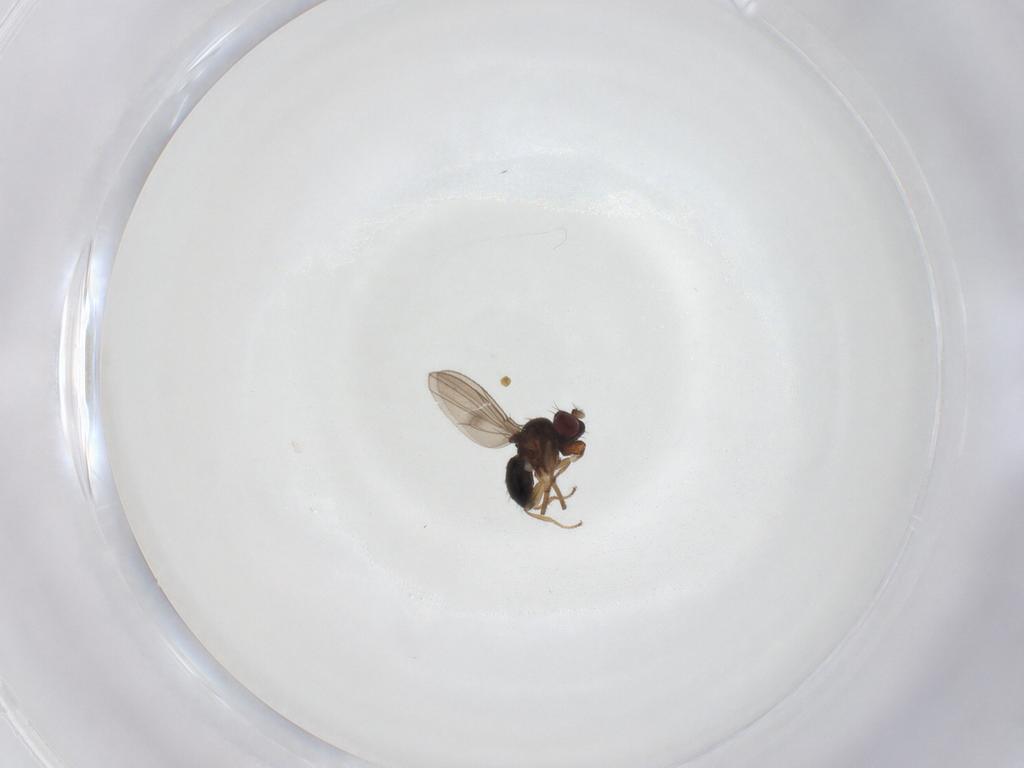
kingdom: Animalia
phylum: Arthropoda
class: Insecta
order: Diptera
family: Ephydridae
